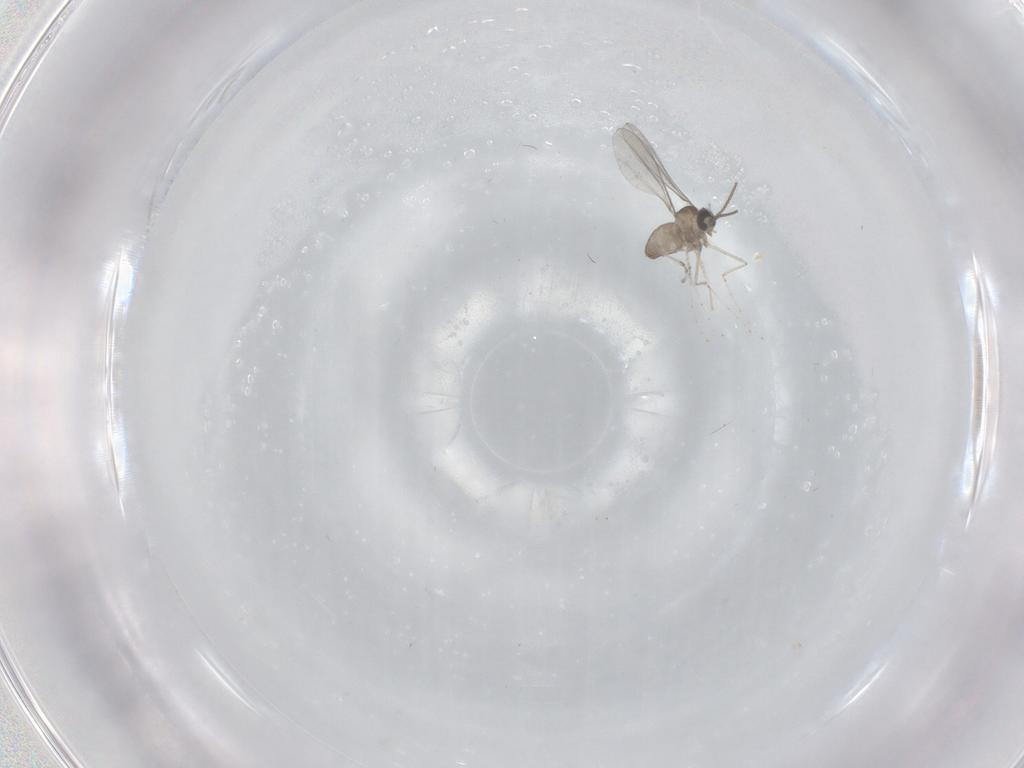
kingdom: Animalia
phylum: Arthropoda
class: Insecta
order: Diptera
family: Cecidomyiidae
